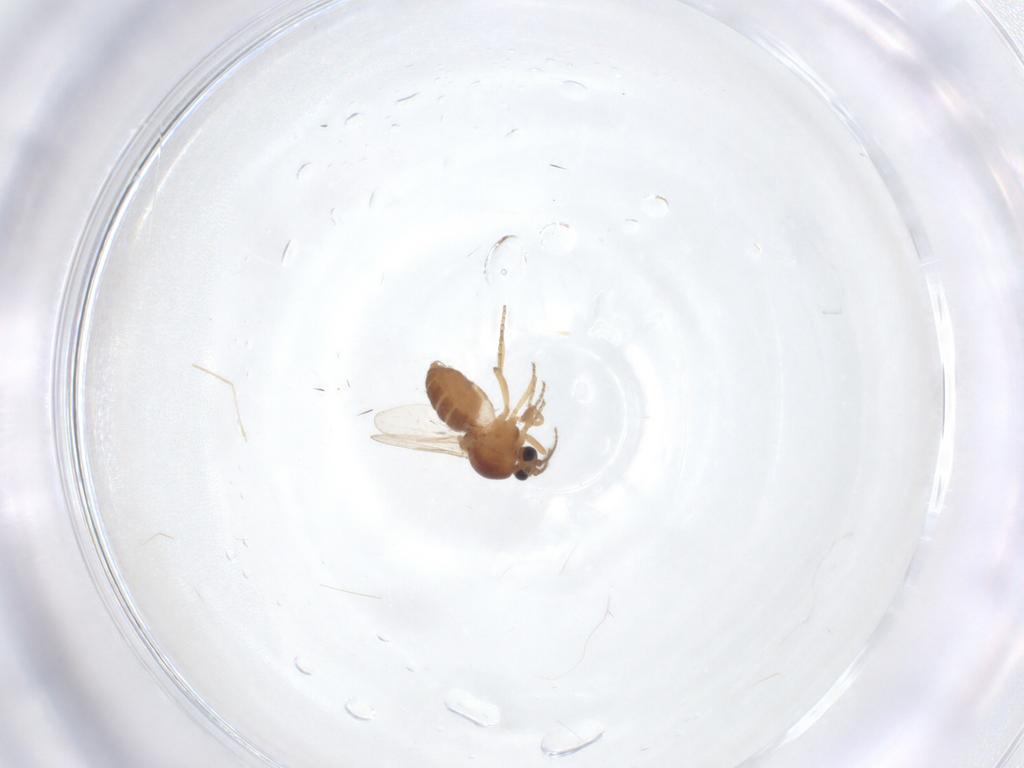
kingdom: Animalia
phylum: Arthropoda
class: Insecta
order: Diptera
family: Ceratopogonidae
